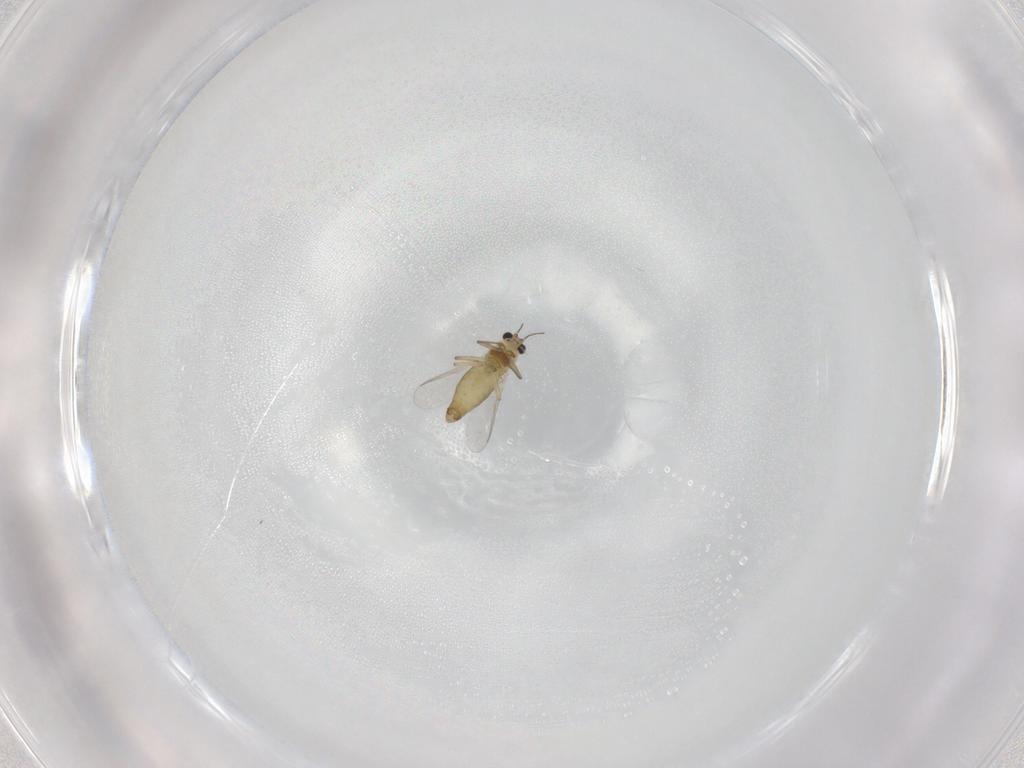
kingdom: Animalia
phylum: Arthropoda
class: Insecta
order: Diptera
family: Chironomidae
